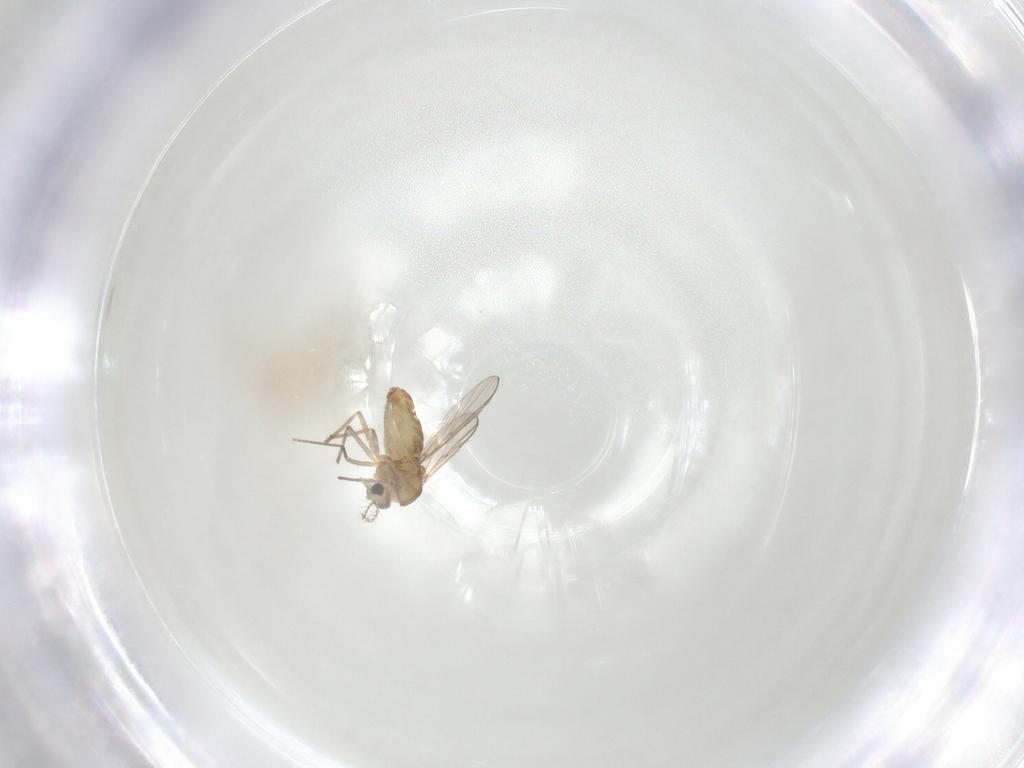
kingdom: Animalia
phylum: Arthropoda
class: Insecta
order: Diptera
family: Chironomidae
